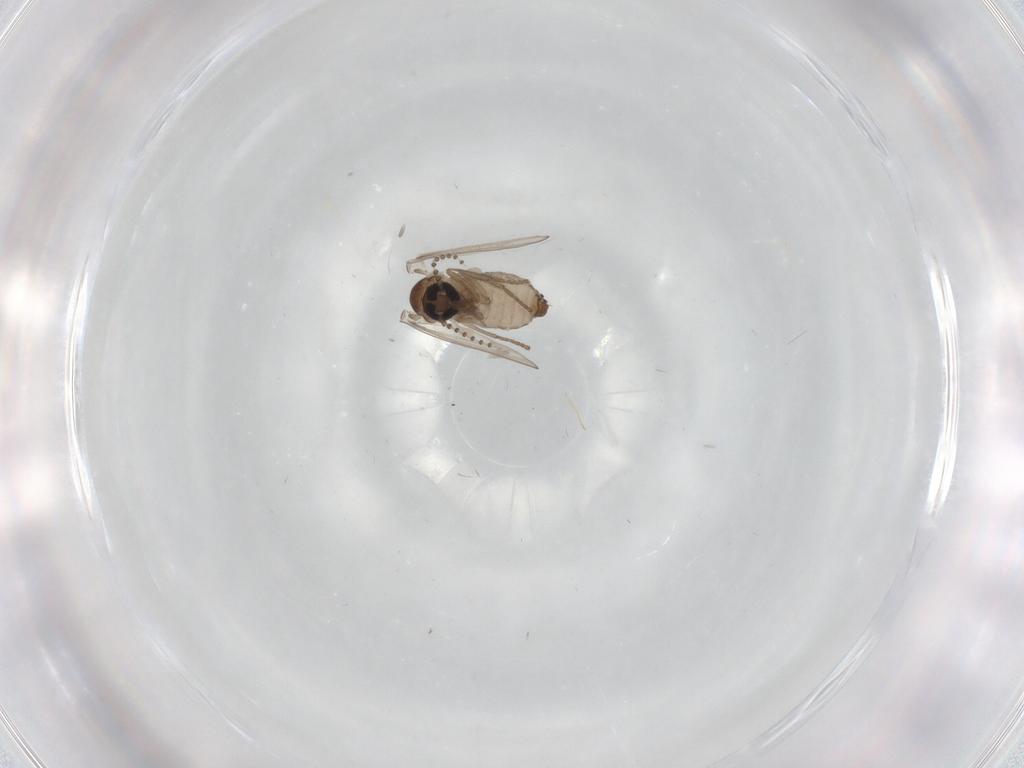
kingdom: Animalia
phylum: Arthropoda
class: Insecta
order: Diptera
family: Psychodidae
